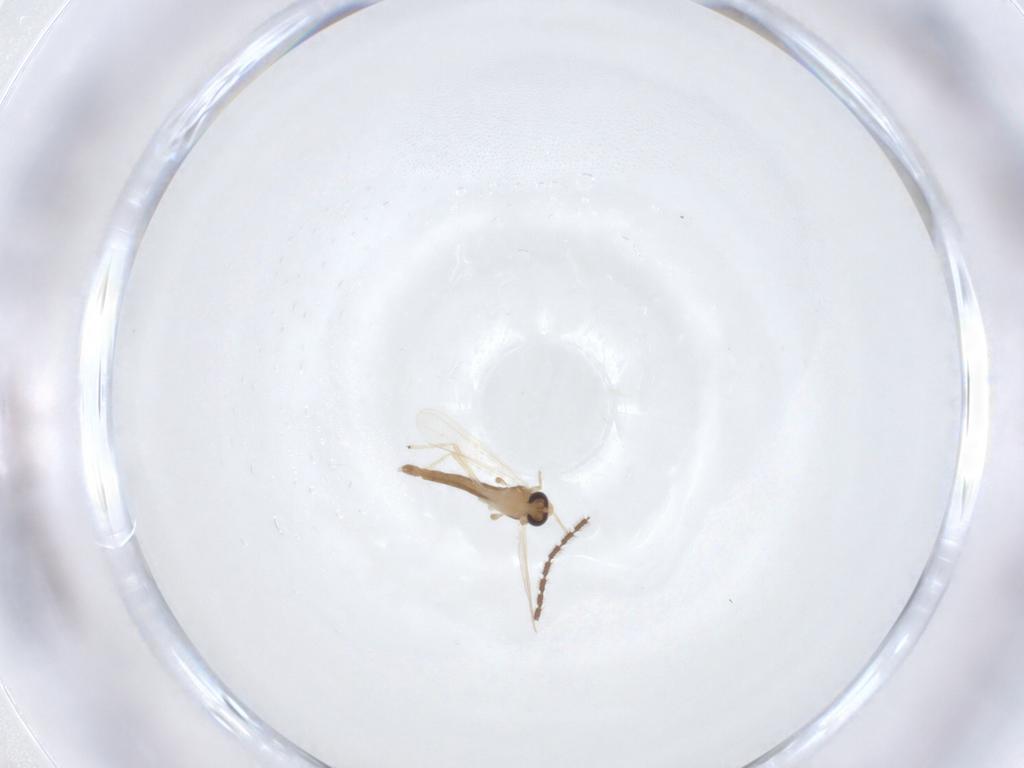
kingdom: Animalia
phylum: Arthropoda
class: Insecta
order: Diptera
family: Chironomidae
